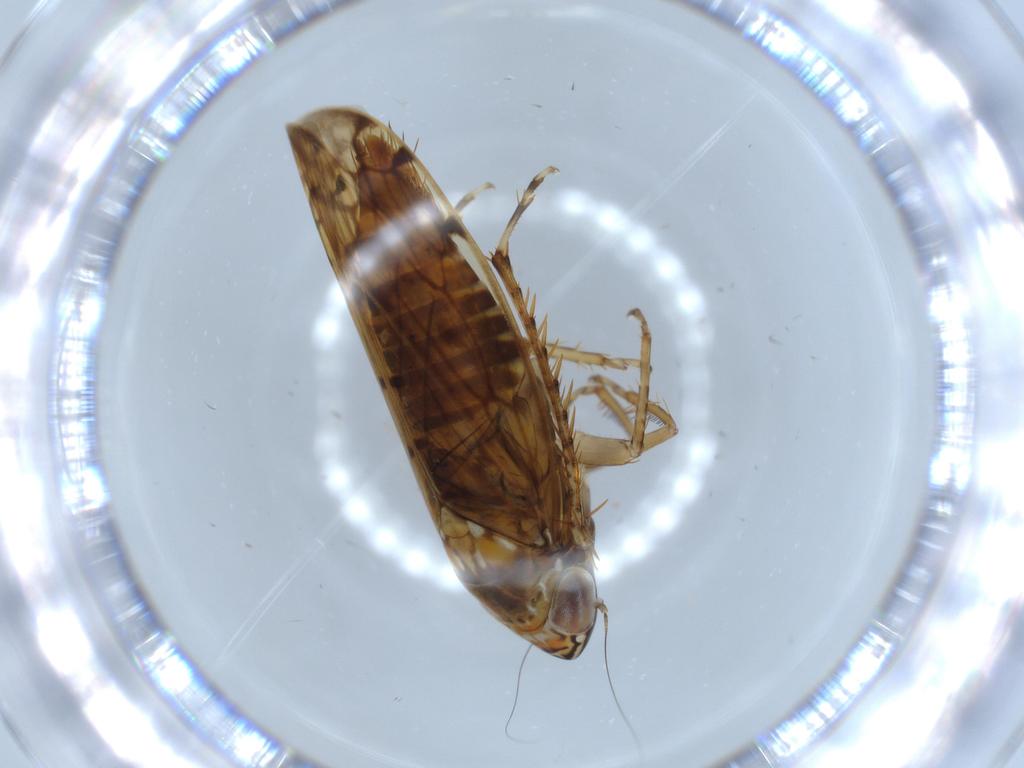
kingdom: Animalia
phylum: Arthropoda
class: Insecta
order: Hemiptera
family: Cicadellidae
